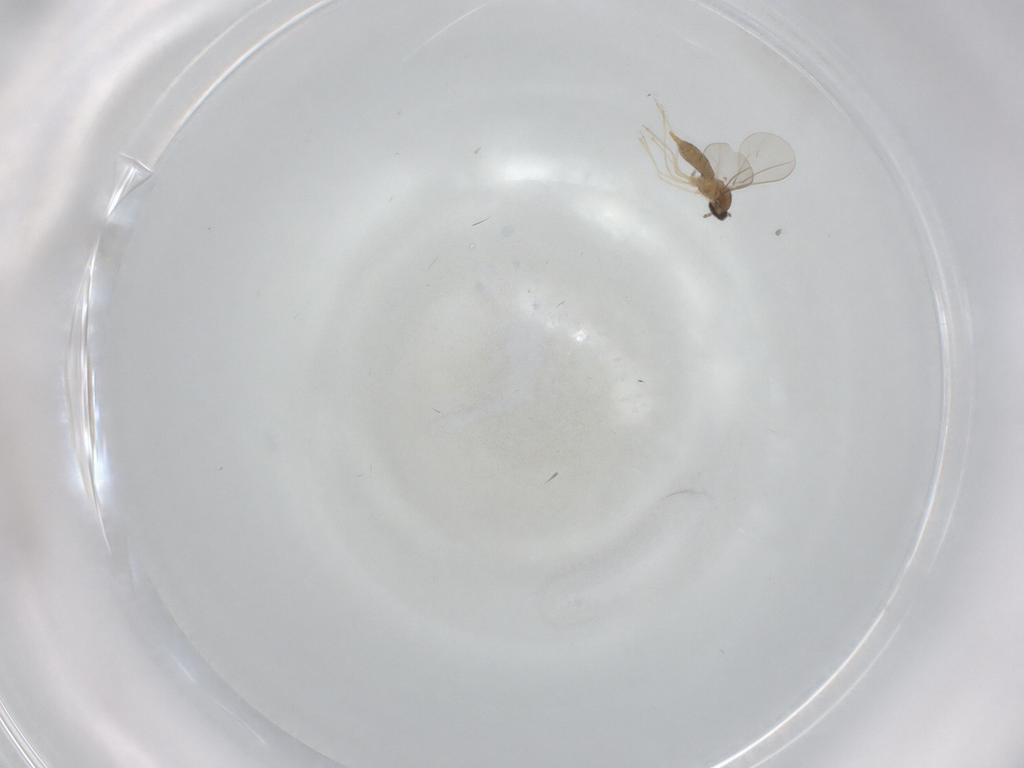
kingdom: Animalia
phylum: Arthropoda
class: Insecta
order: Diptera
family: Cecidomyiidae
